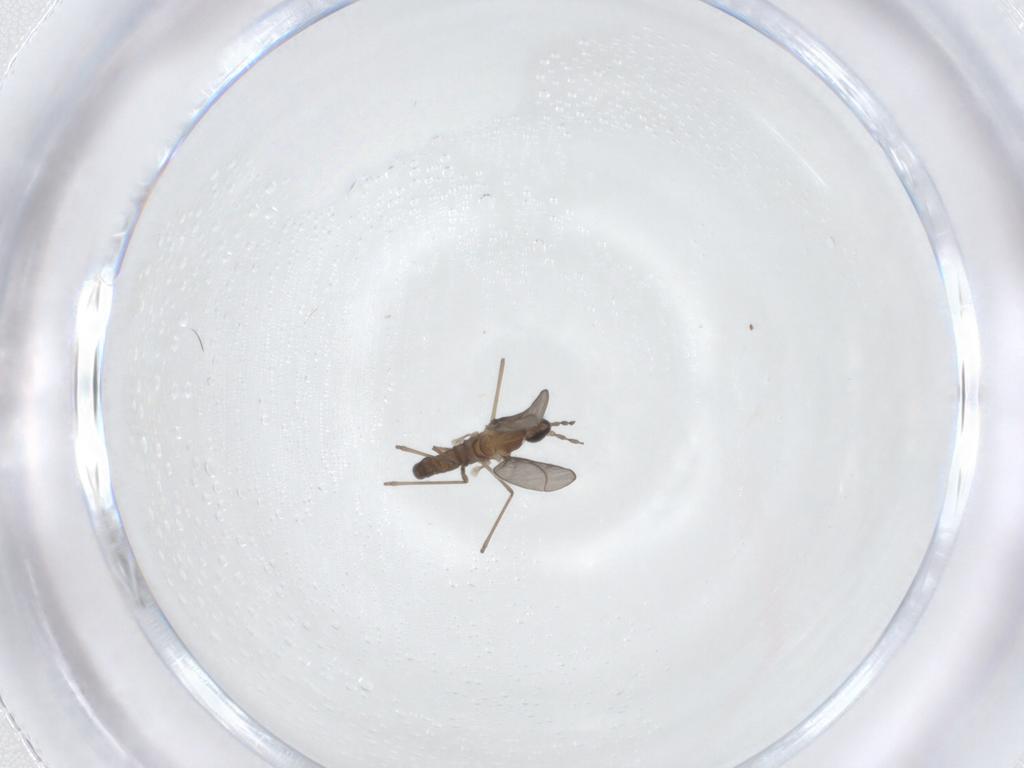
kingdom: Animalia
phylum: Arthropoda
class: Insecta
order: Diptera
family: Cecidomyiidae
